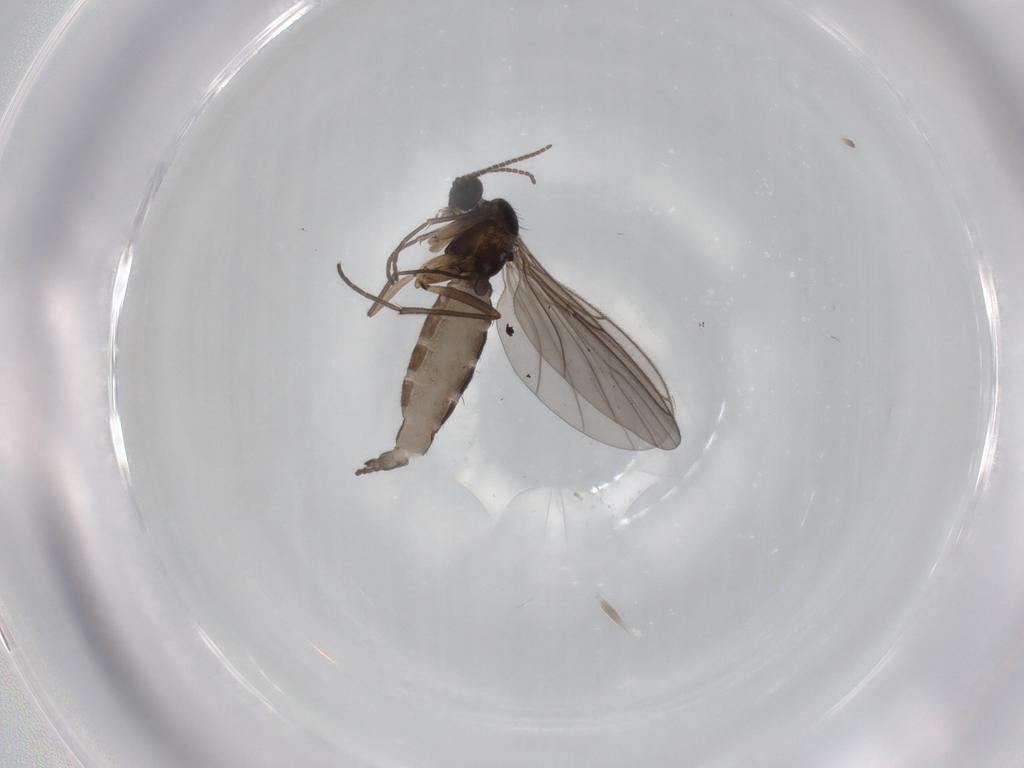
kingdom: Animalia
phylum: Arthropoda
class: Insecta
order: Diptera
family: Sciaridae
